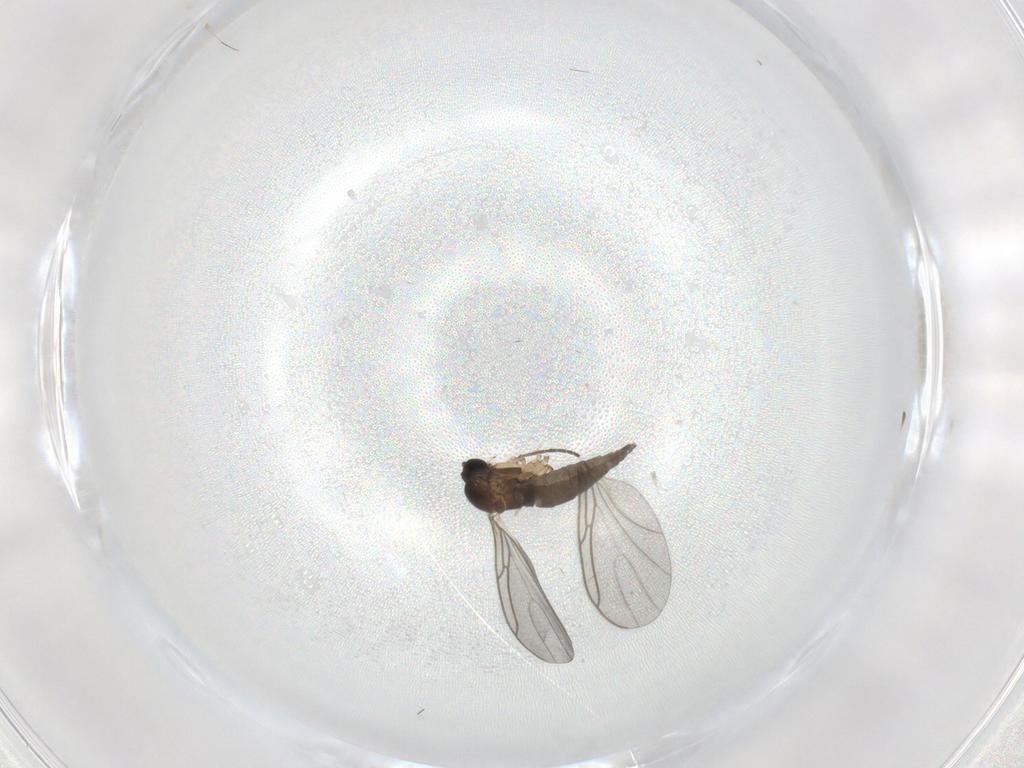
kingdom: Animalia
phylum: Arthropoda
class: Insecta
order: Diptera
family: Sciaridae
